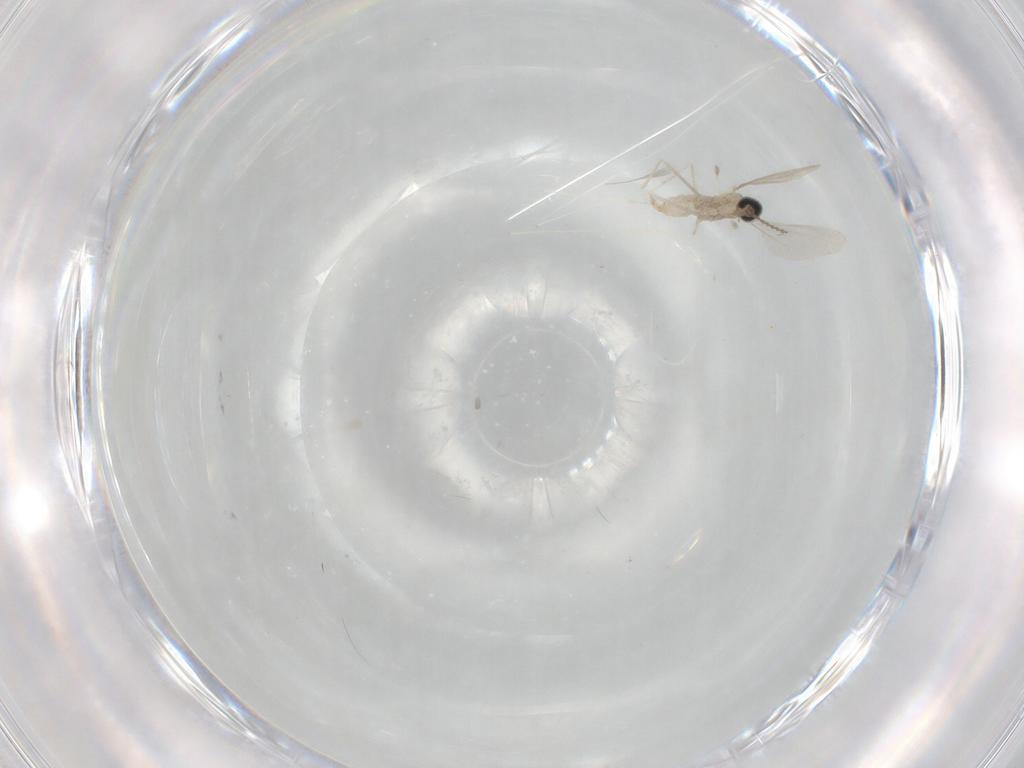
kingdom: Animalia
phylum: Arthropoda
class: Insecta
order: Diptera
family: Cecidomyiidae
